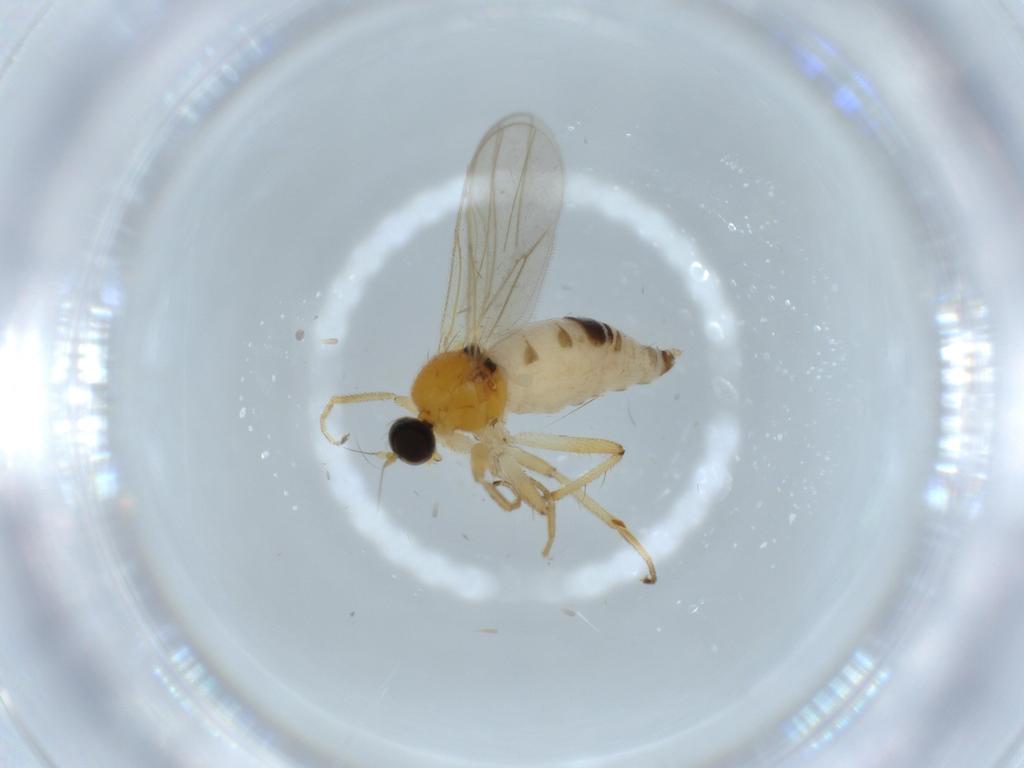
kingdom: Animalia
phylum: Arthropoda
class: Insecta
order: Diptera
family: Hybotidae
